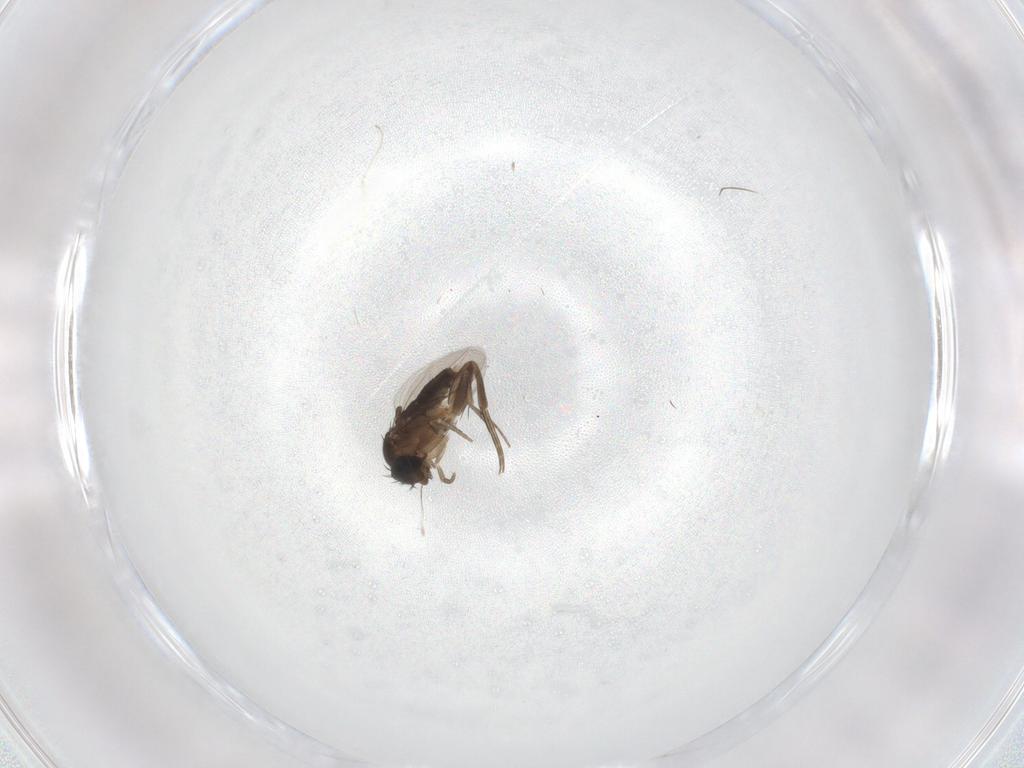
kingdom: Animalia
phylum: Arthropoda
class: Insecta
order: Diptera
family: Phoridae
